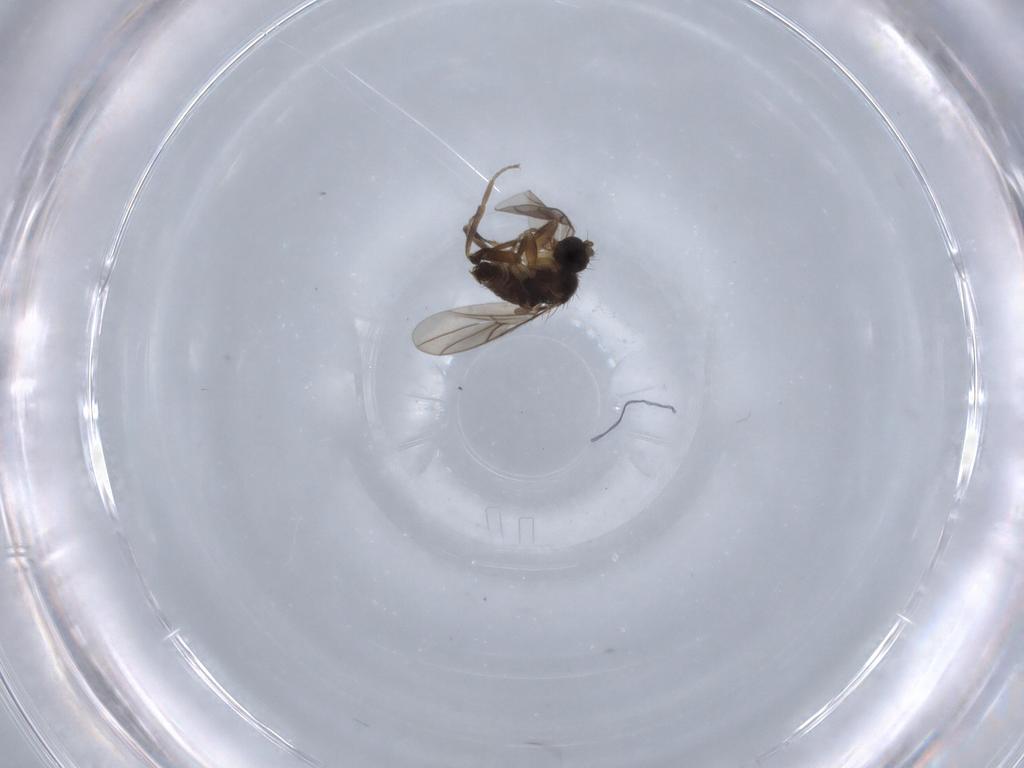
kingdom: Animalia
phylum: Arthropoda
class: Insecta
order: Diptera
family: Hybotidae
